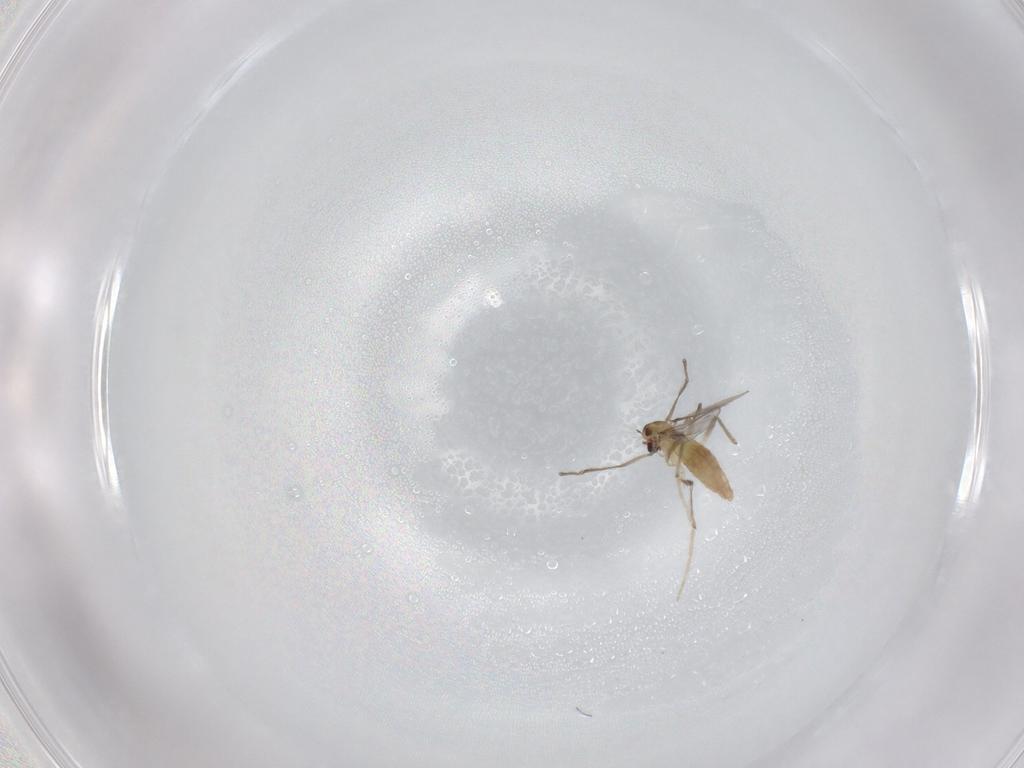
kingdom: Animalia
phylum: Arthropoda
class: Insecta
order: Diptera
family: Chironomidae
